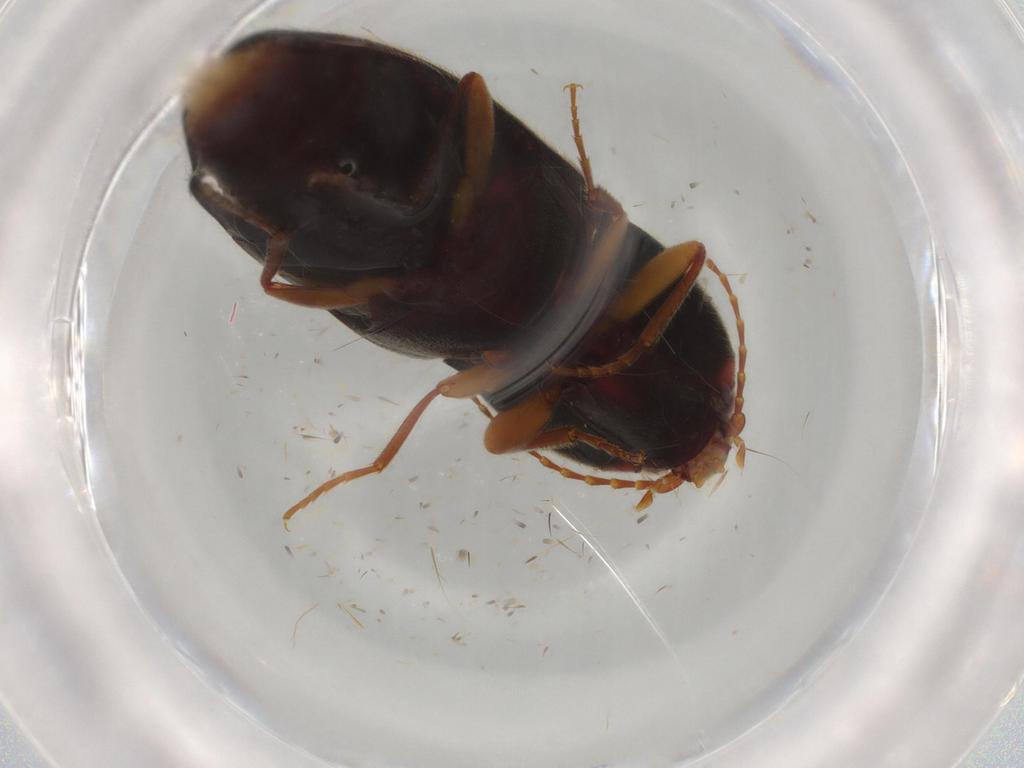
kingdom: Animalia
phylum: Arthropoda
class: Insecta
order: Coleoptera
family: Elateridae
